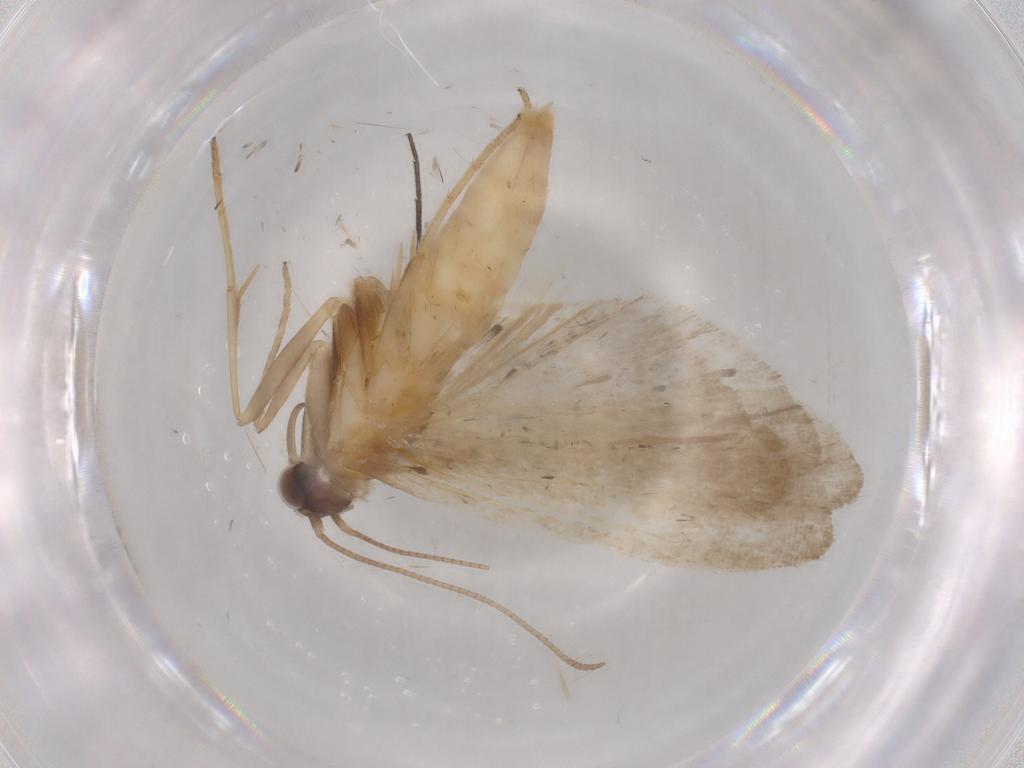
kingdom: Animalia
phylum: Arthropoda
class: Insecta
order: Lepidoptera
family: Noctuidae
